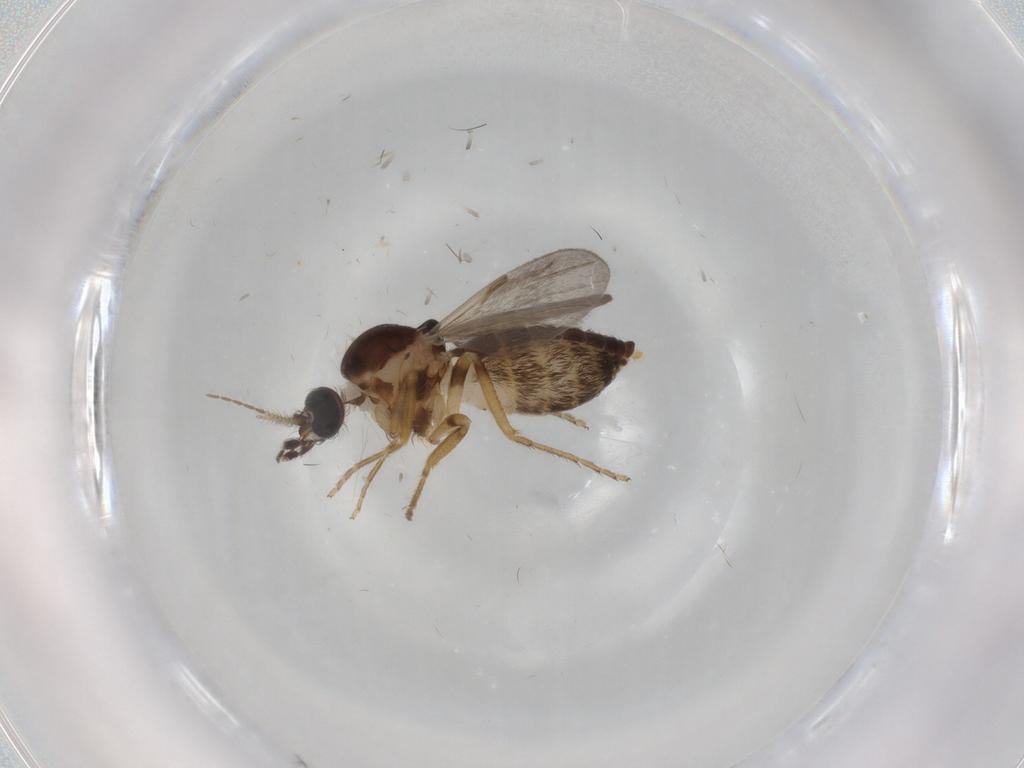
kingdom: Animalia
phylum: Arthropoda
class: Insecta
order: Diptera
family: Ceratopogonidae
